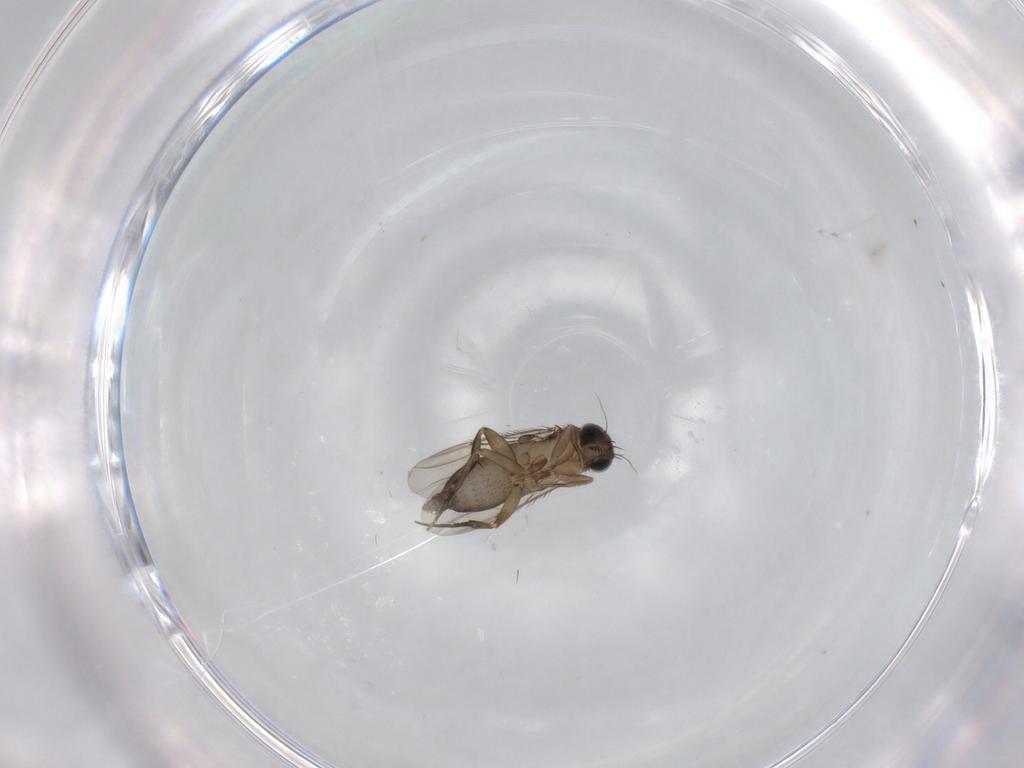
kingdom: Animalia
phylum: Arthropoda
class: Insecta
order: Diptera
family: Phoridae
